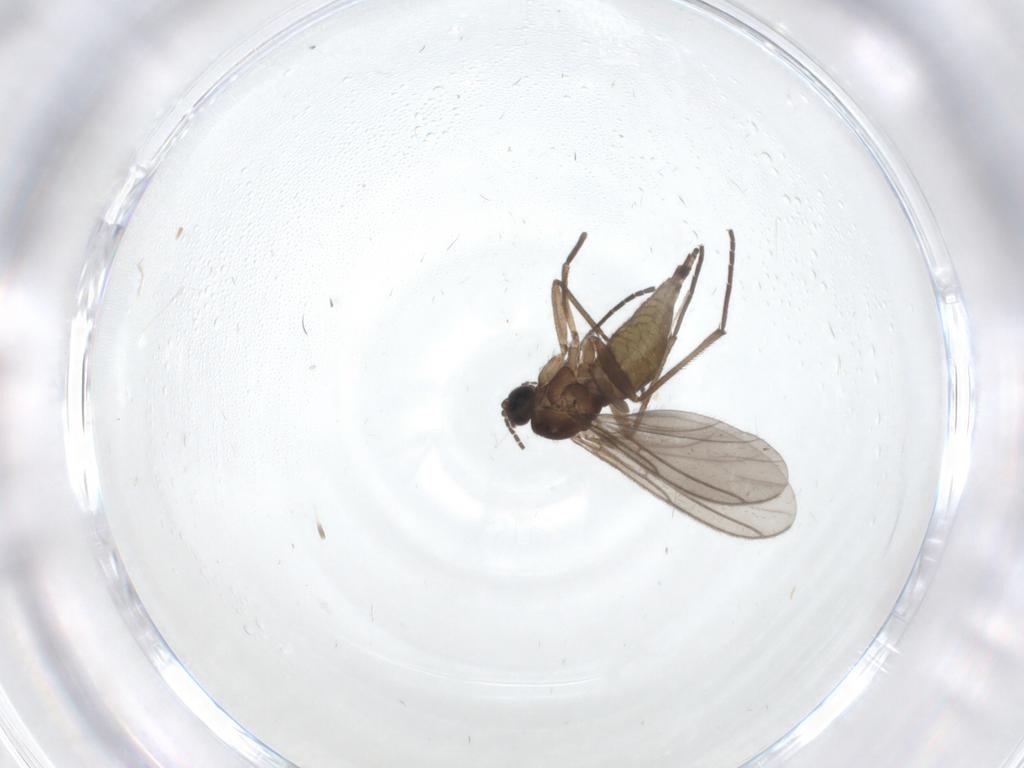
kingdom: Animalia
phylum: Arthropoda
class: Insecta
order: Diptera
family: Chironomidae
